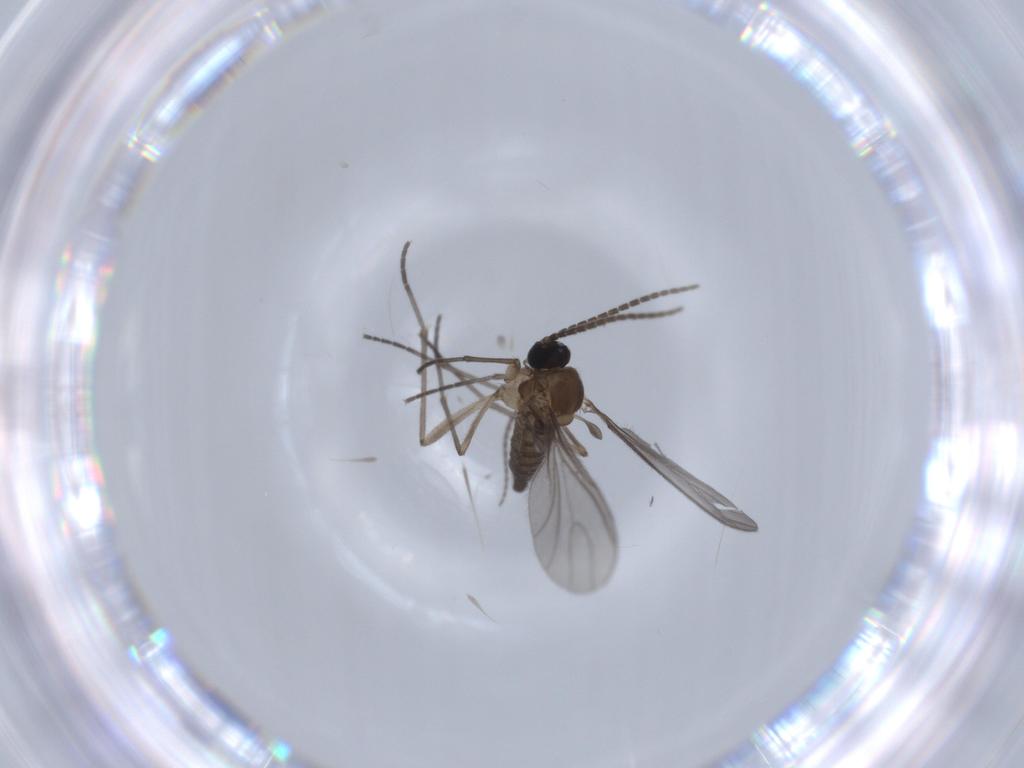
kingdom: Animalia
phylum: Arthropoda
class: Insecta
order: Diptera
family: Sciaridae
